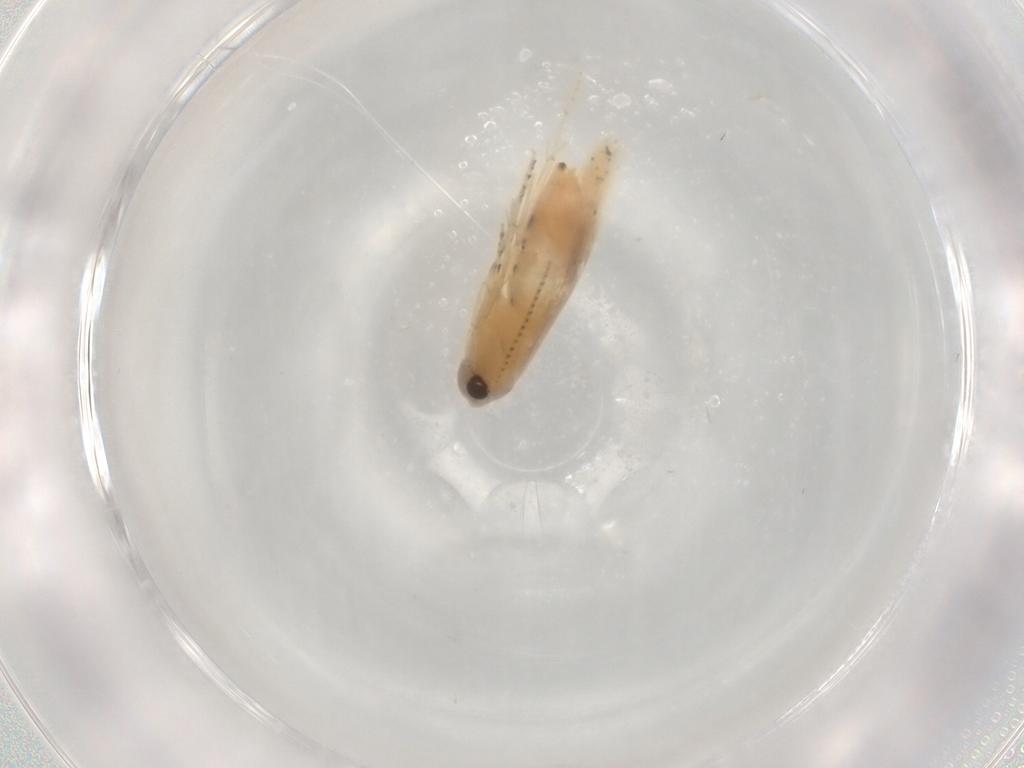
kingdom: Animalia
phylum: Arthropoda
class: Insecta
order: Lepidoptera
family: Bucculatricidae
